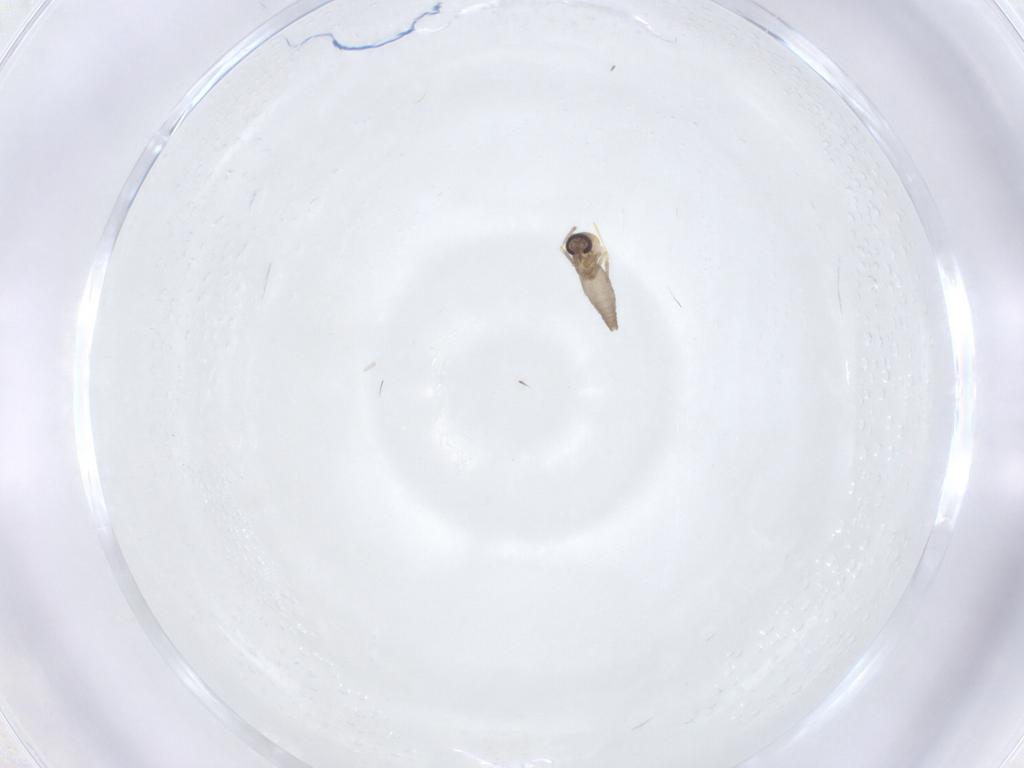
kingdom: Animalia
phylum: Arthropoda
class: Insecta
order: Diptera
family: Ceratopogonidae
